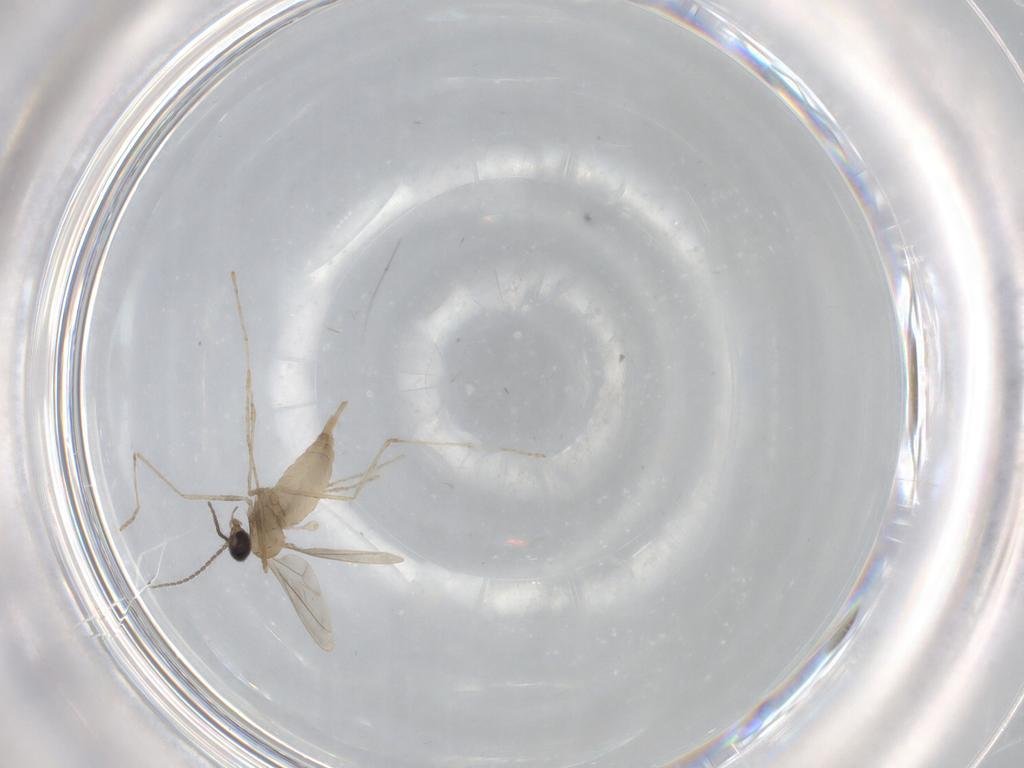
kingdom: Animalia
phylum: Arthropoda
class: Insecta
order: Diptera
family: Cecidomyiidae
